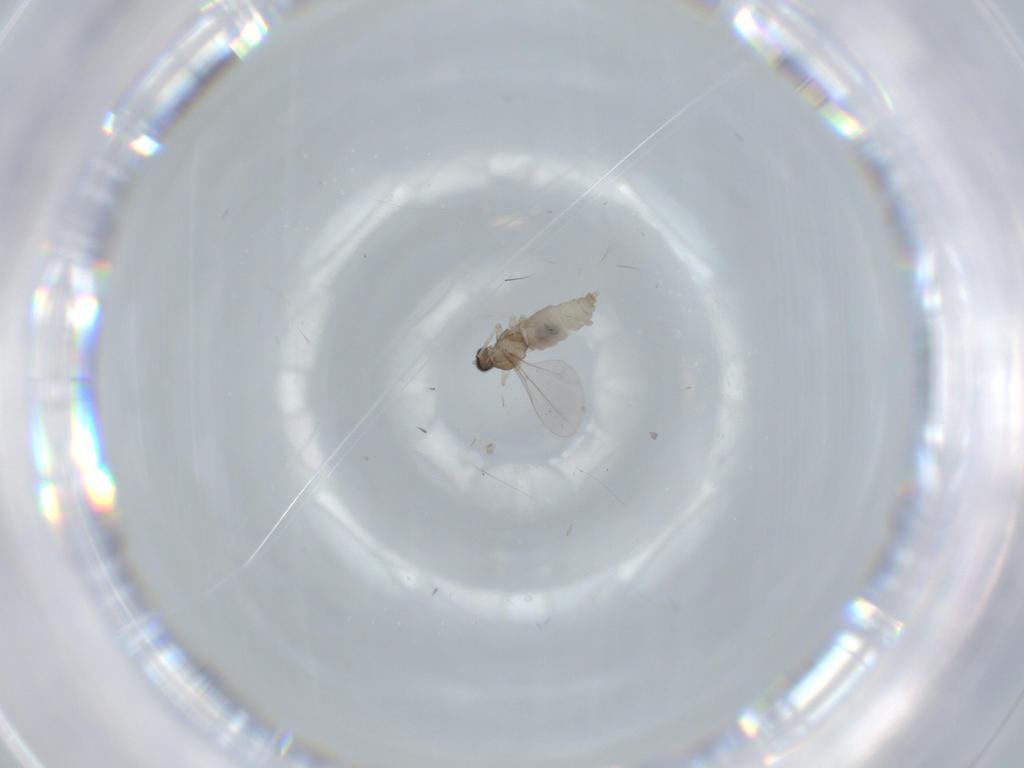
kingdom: Animalia
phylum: Arthropoda
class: Insecta
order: Diptera
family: Cecidomyiidae
